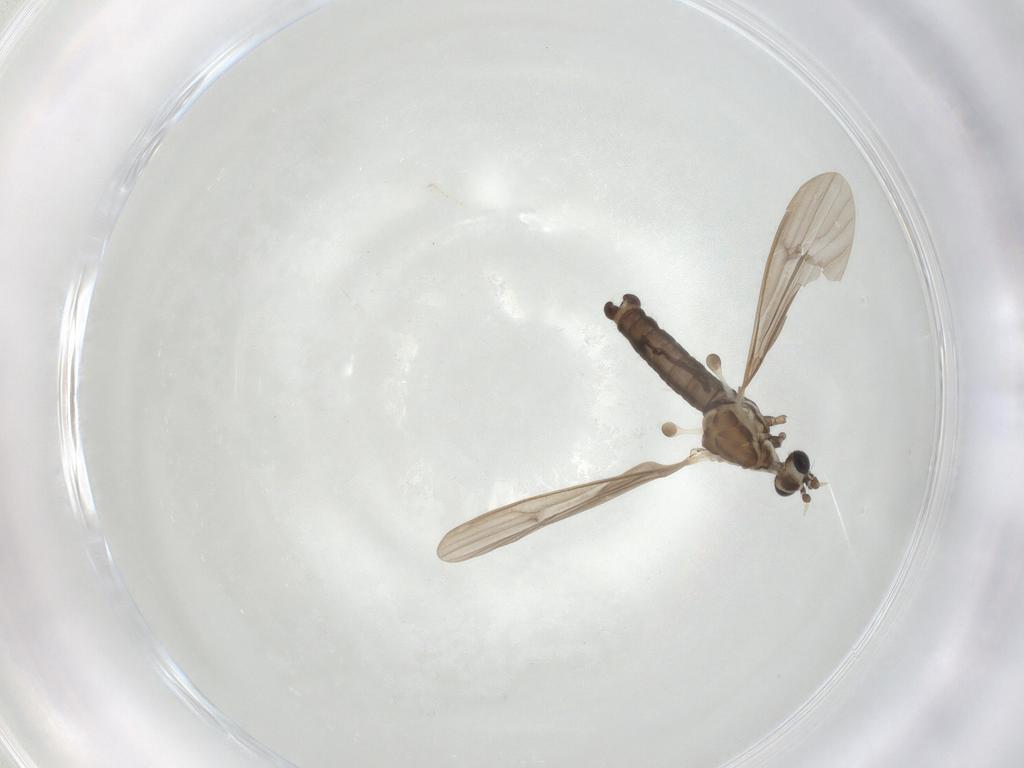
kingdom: Animalia
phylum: Arthropoda
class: Insecta
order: Diptera
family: Limoniidae
